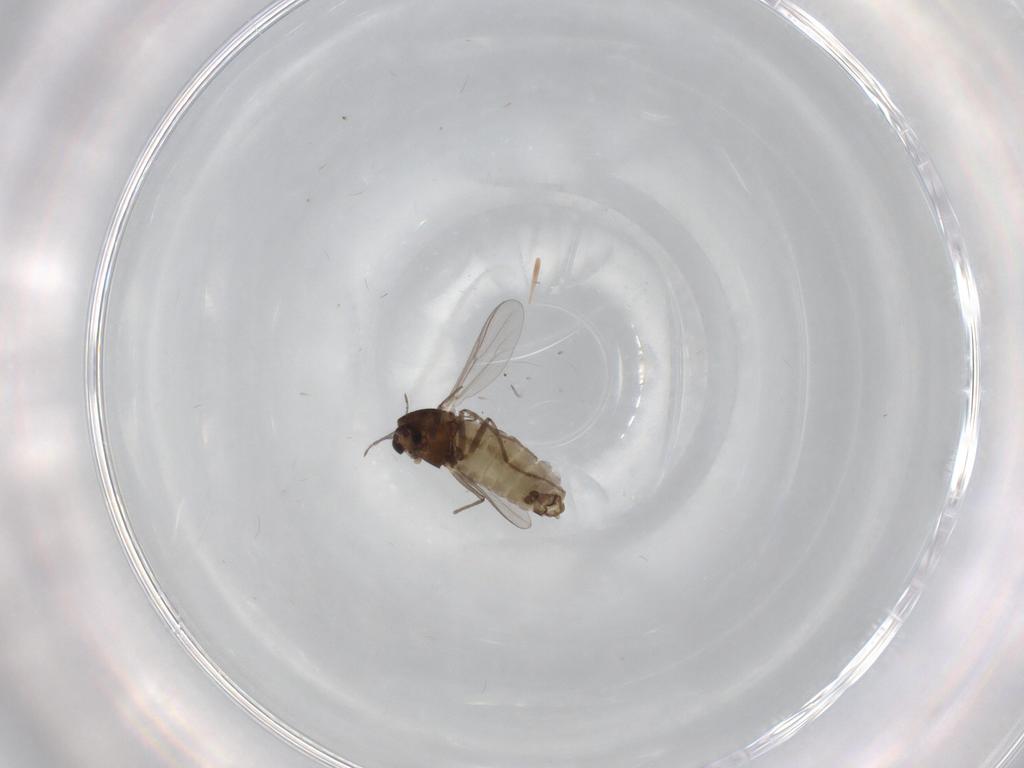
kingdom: Animalia
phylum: Arthropoda
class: Insecta
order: Diptera
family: Chironomidae
